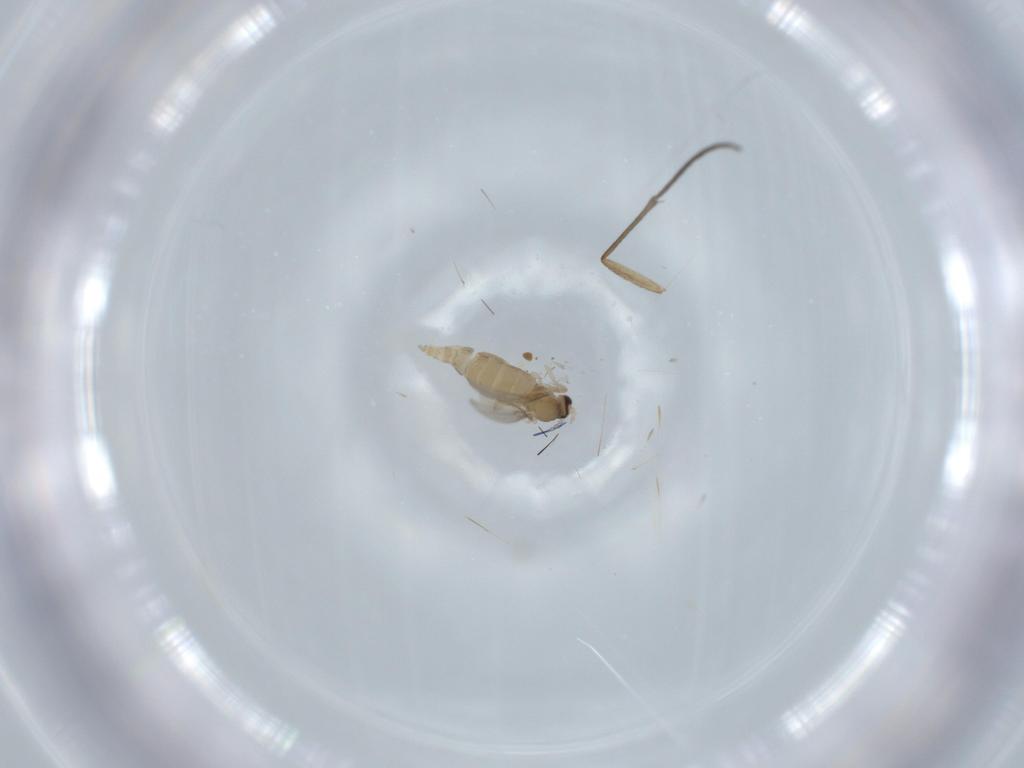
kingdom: Animalia
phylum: Arthropoda
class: Insecta
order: Diptera
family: Cecidomyiidae
